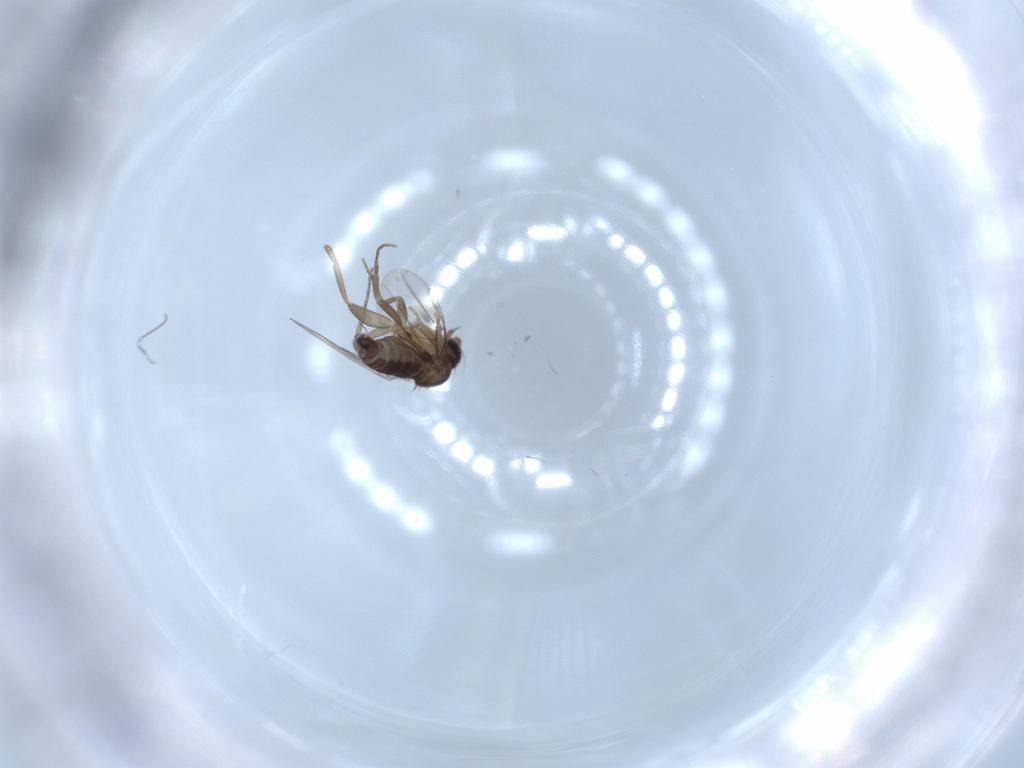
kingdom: Animalia
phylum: Arthropoda
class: Insecta
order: Diptera
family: Phoridae
